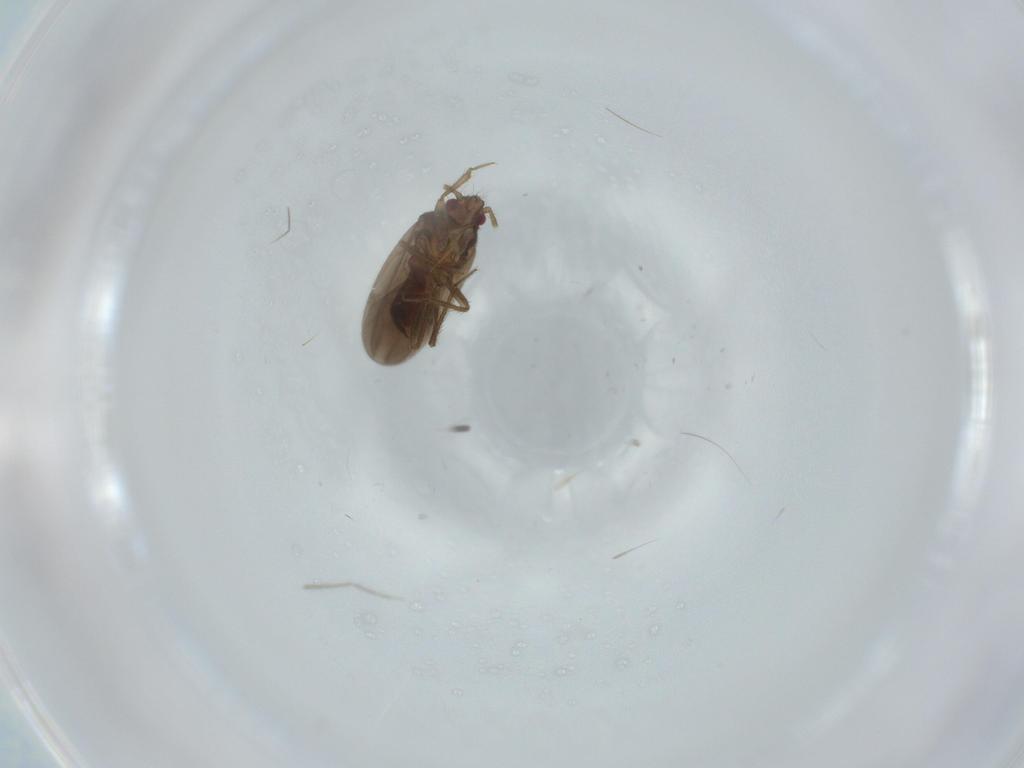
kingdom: Animalia
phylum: Arthropoda
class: Insecta
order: Hemiptera
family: Ceratocombidae
